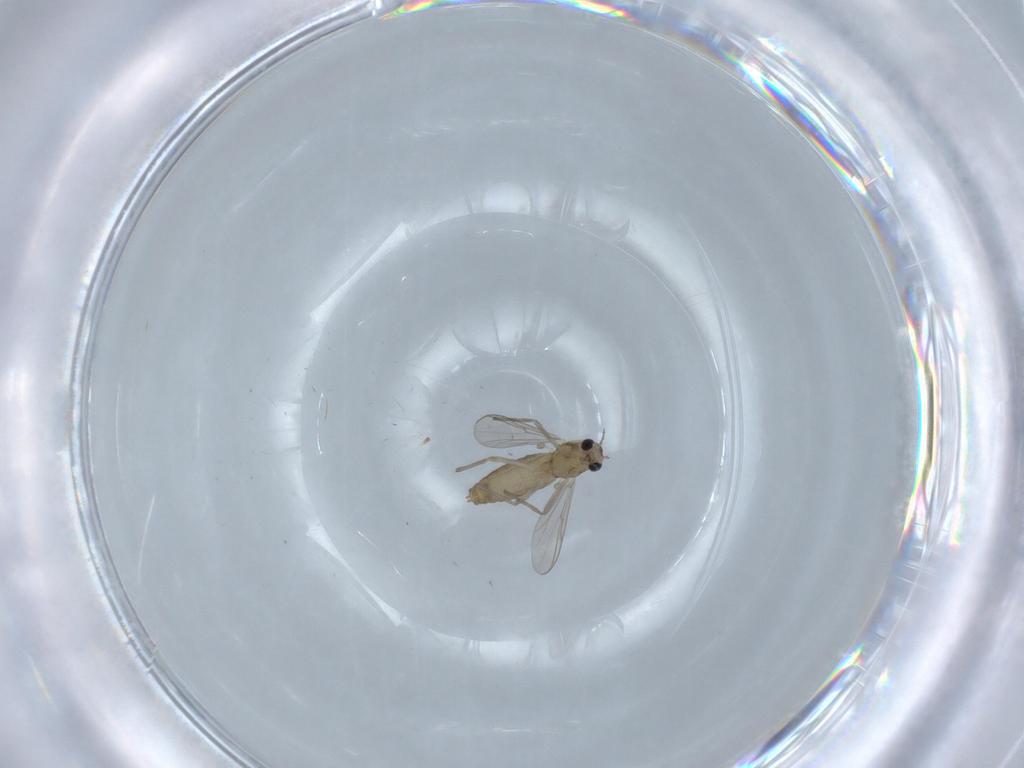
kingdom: Animalia
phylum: Arthropoda
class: Insecta
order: Diptera
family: Chironomidae
